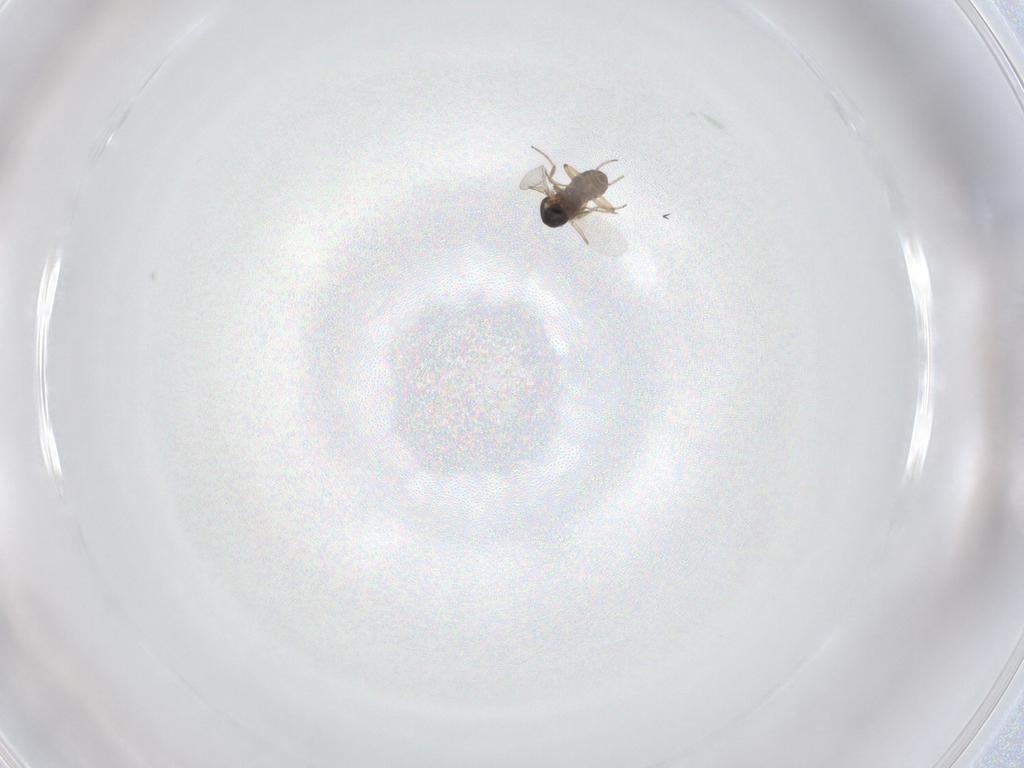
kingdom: Animalia
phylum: Arthropoda
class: Insecta
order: Diptera
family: Ceratopogonidae
